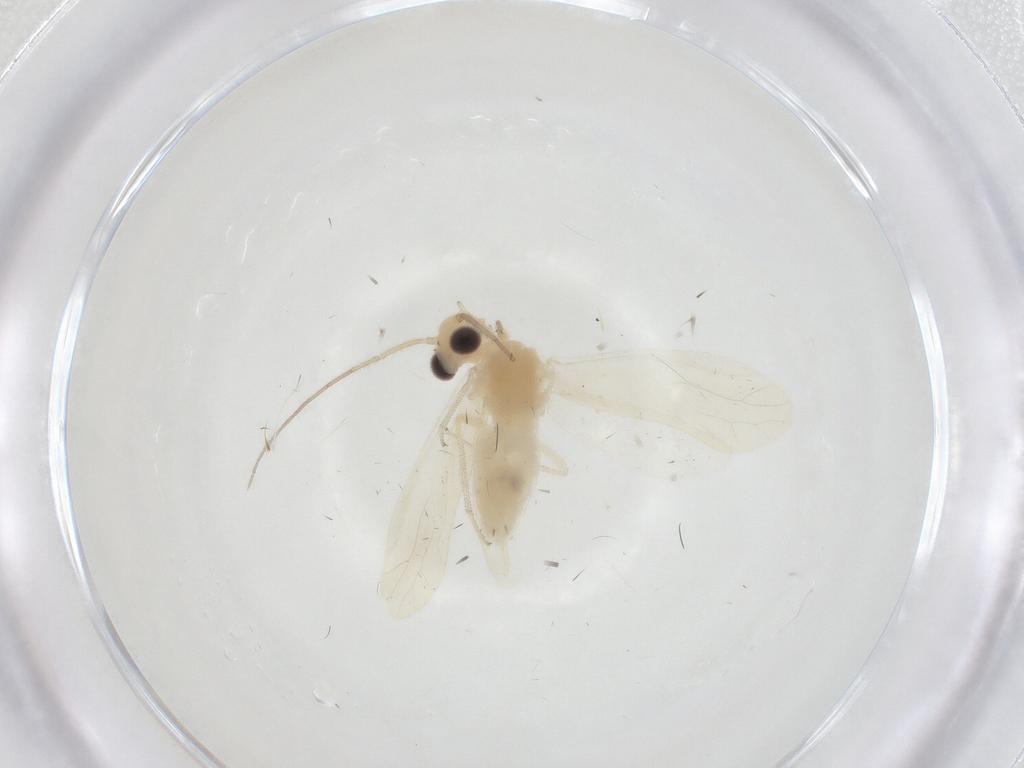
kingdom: Animalia
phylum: Arthropoda
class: Insecta
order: Psocodea
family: Caeciliusidae
